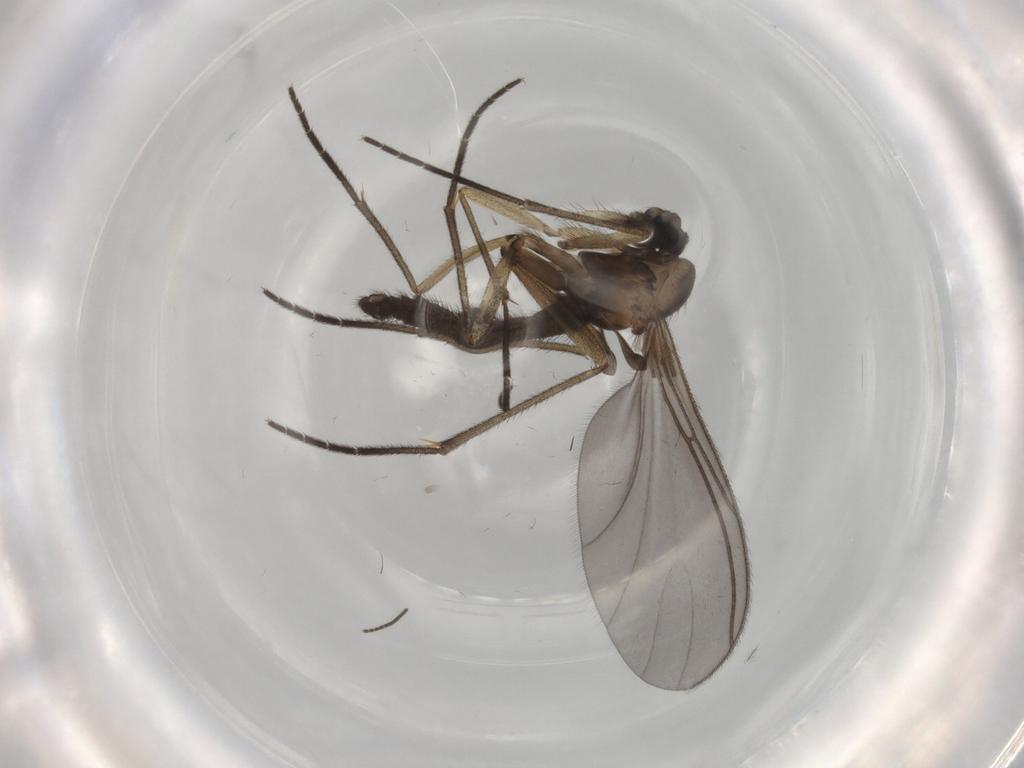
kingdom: Animalia
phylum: Arthropoda
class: Insecta
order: Diptera
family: Sciaridae
